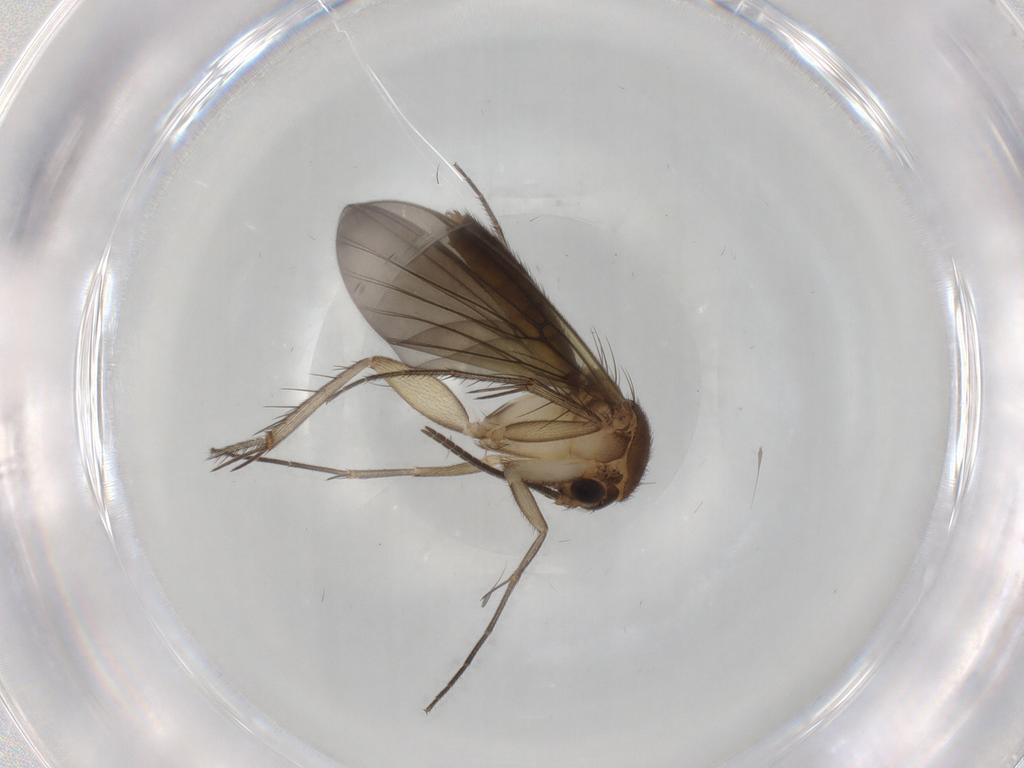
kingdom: Animalia
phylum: Arthropoda
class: Insecta
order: Diptera
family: Mycetophilidae
